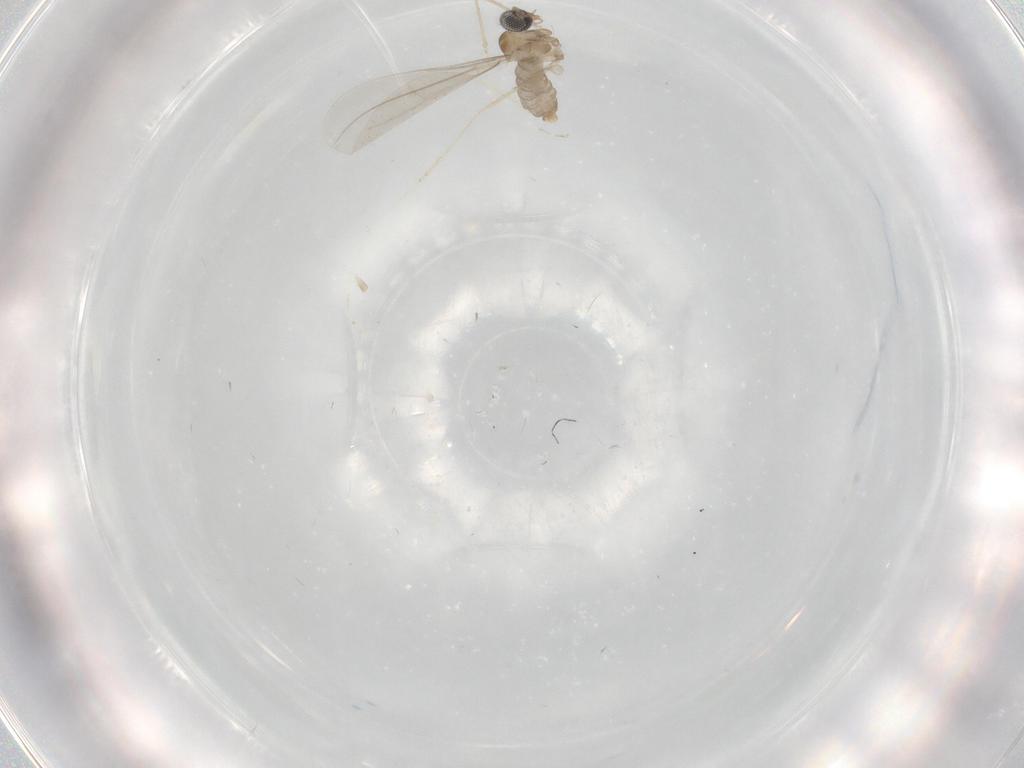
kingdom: Animalia
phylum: Arthropoda
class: Insecta
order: Diptera
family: Cecidomyiidae
